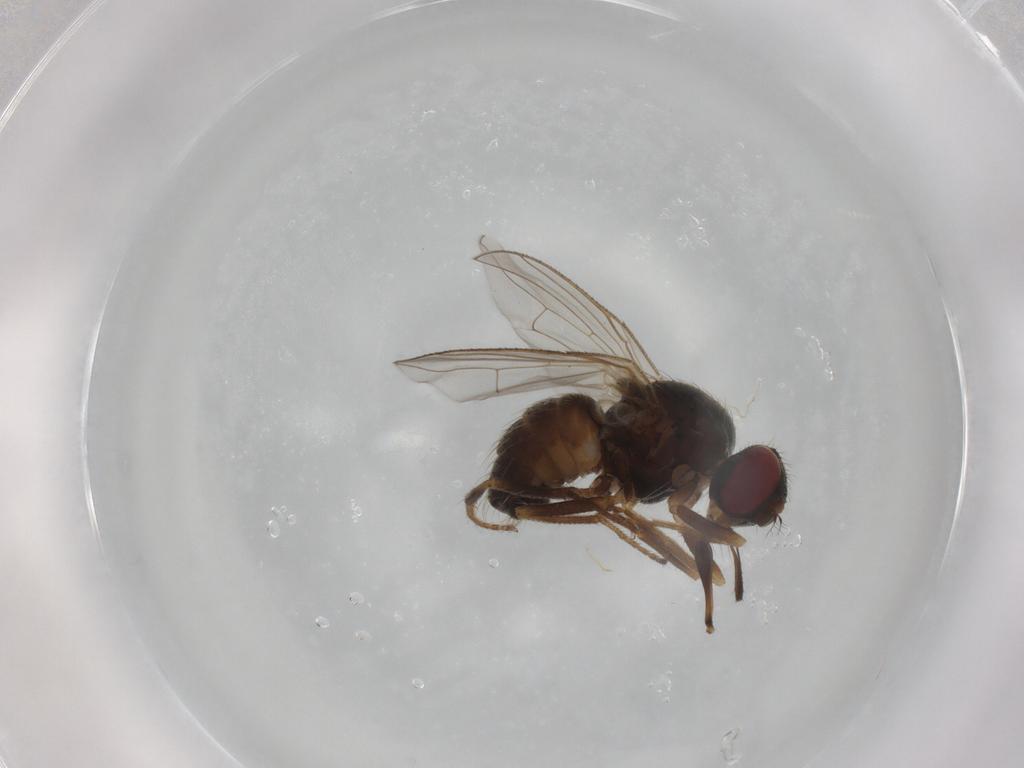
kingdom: Animalia
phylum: Arthropoda
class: Insecta
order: Diptera
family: Muscidae
